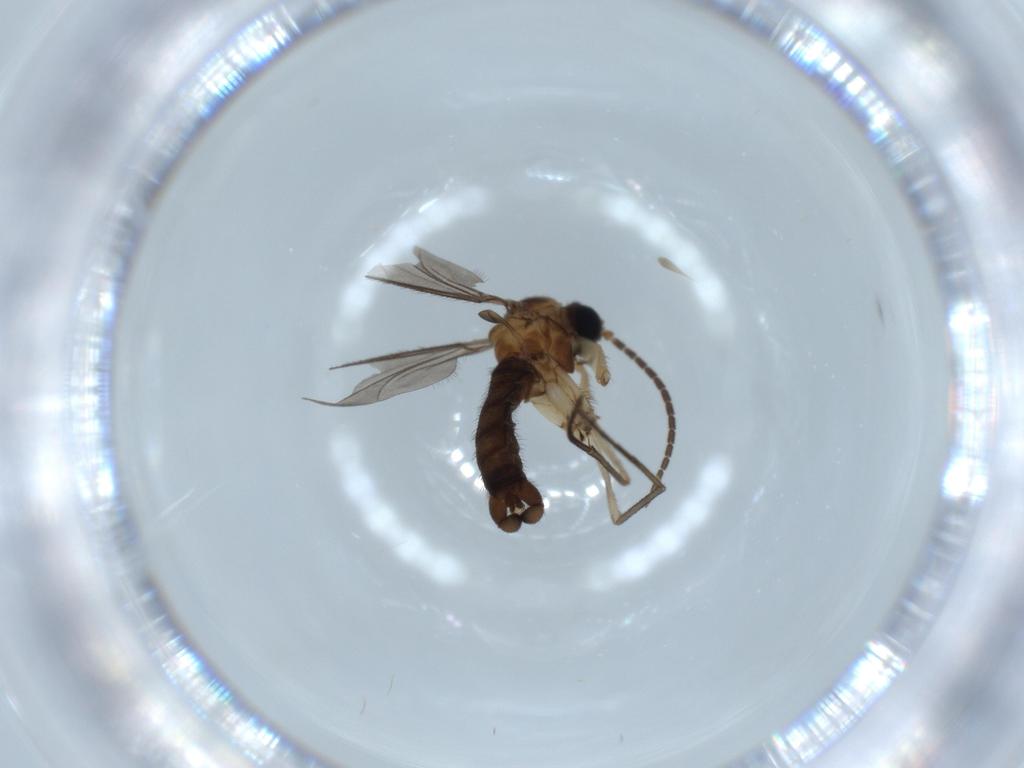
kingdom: Animalia
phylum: Arthropoda
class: Insecta
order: Diptera
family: Sciaridae
